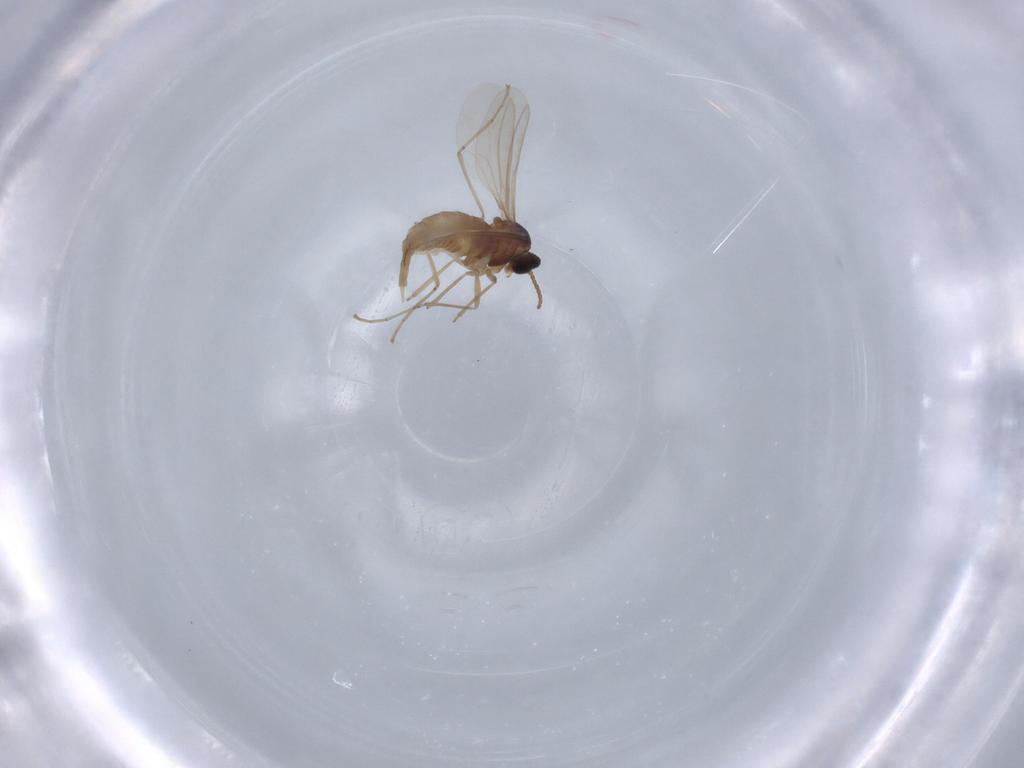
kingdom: Animalia
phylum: Arthropoda
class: Insecta
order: Diptera
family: Cecidomyiidae
